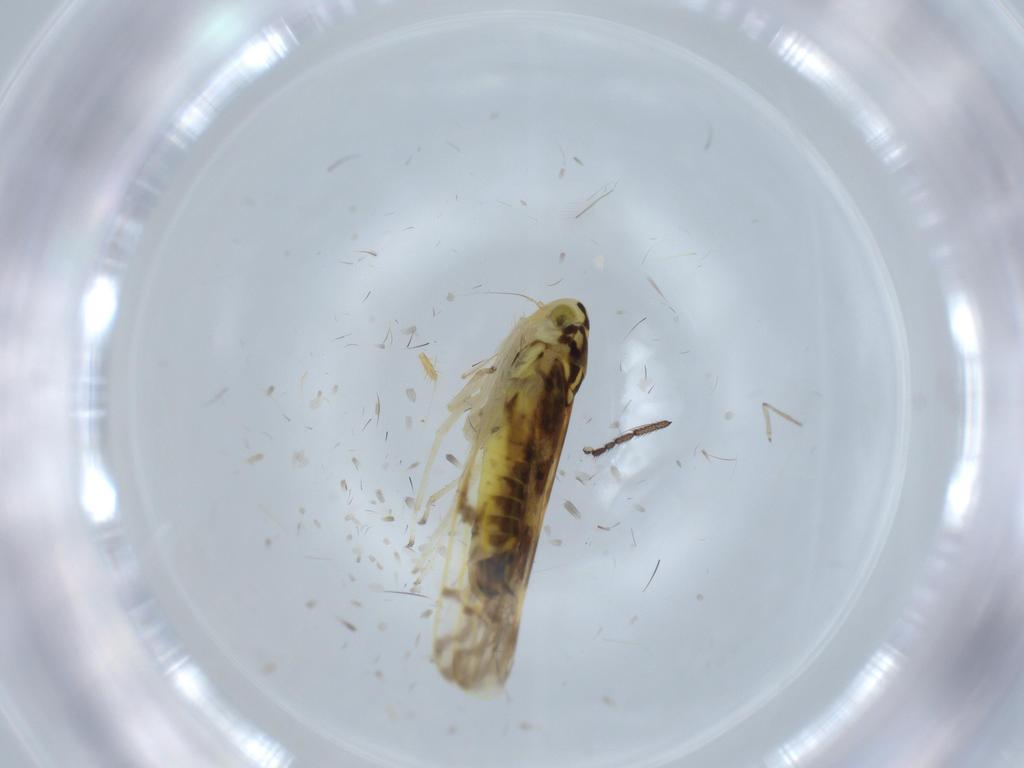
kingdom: Animalia
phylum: Arthropoda
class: Insecta
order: Hemiptera
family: Cicadellidae
